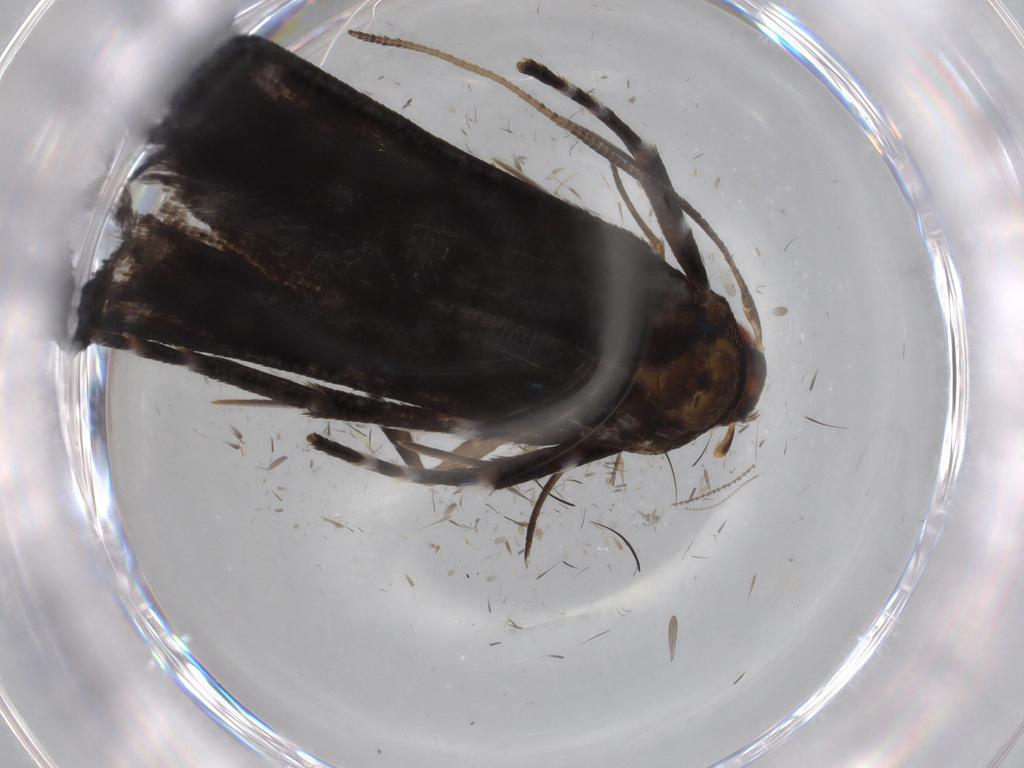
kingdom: Animalia
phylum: Arthropoda
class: Insecta
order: Lepidoptera
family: Gelechiidae
